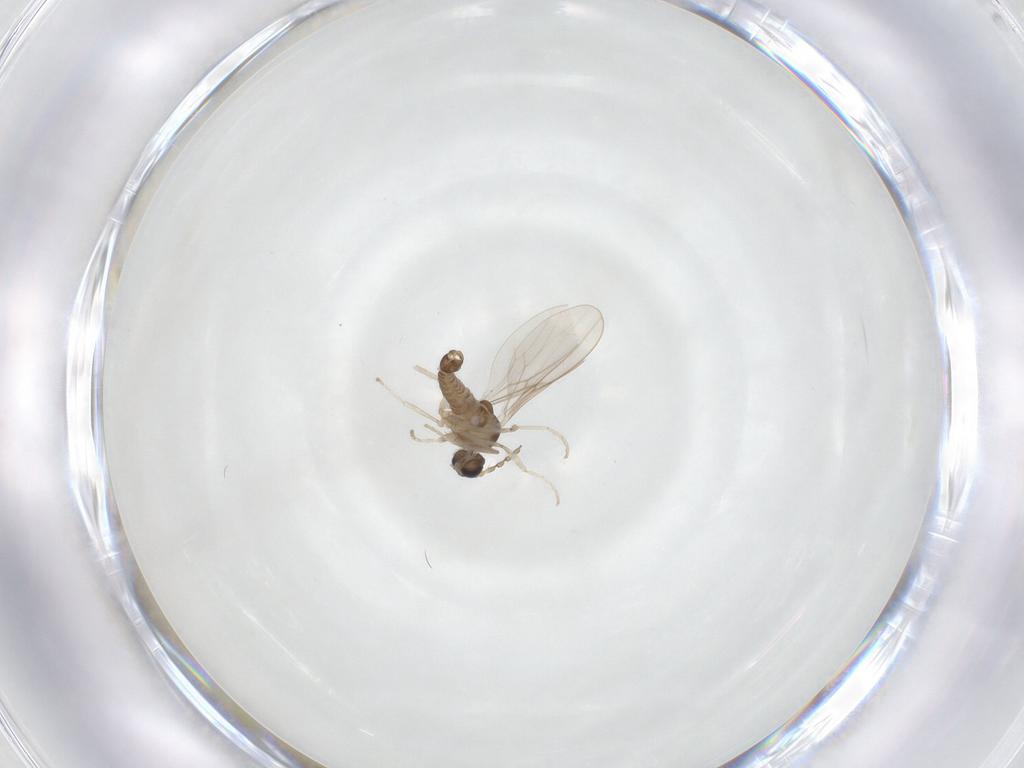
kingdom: Animalia
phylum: Arthropoda
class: Insecta
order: Diptera
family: Cecidomyiidae
